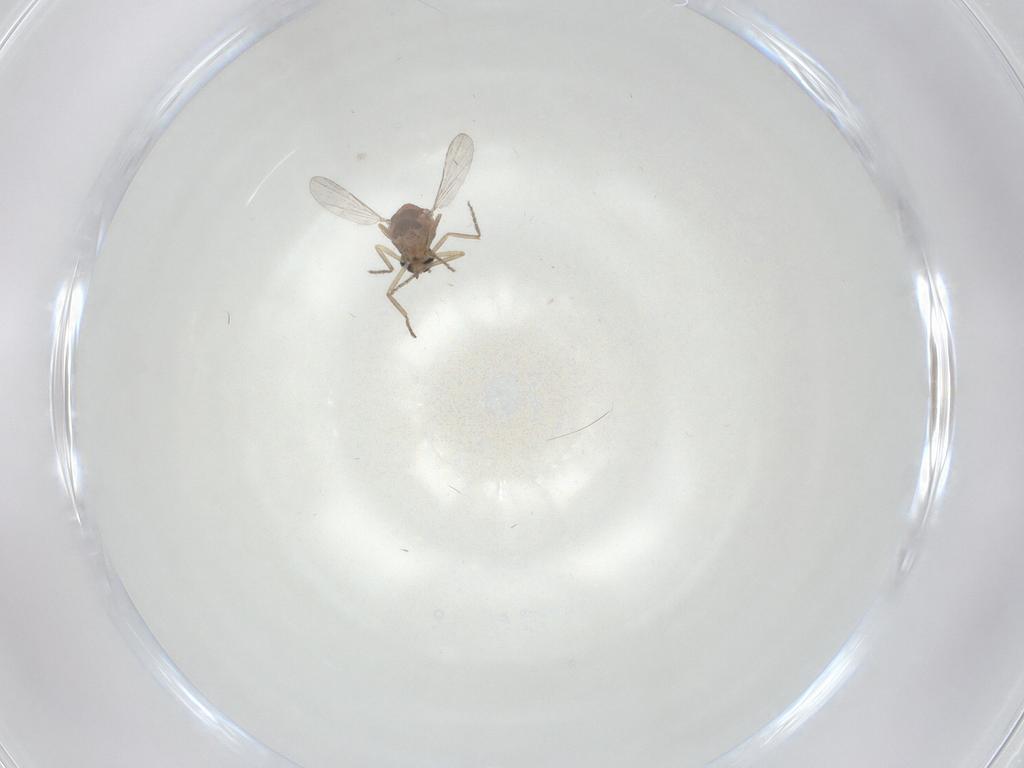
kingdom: Animalia
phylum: Arthropoda
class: Insecta
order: Diptera
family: Ceratopogonidae
